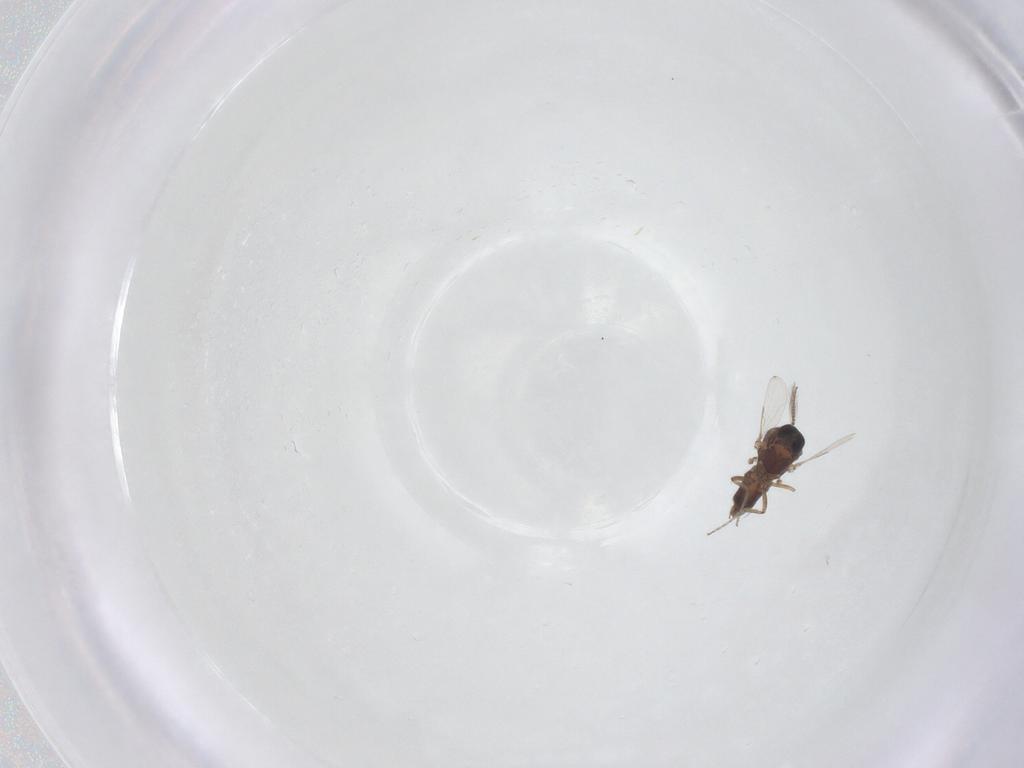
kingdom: Animalia
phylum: Arthropoda
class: Insecta
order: Diptera
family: Ceratopogonidae
